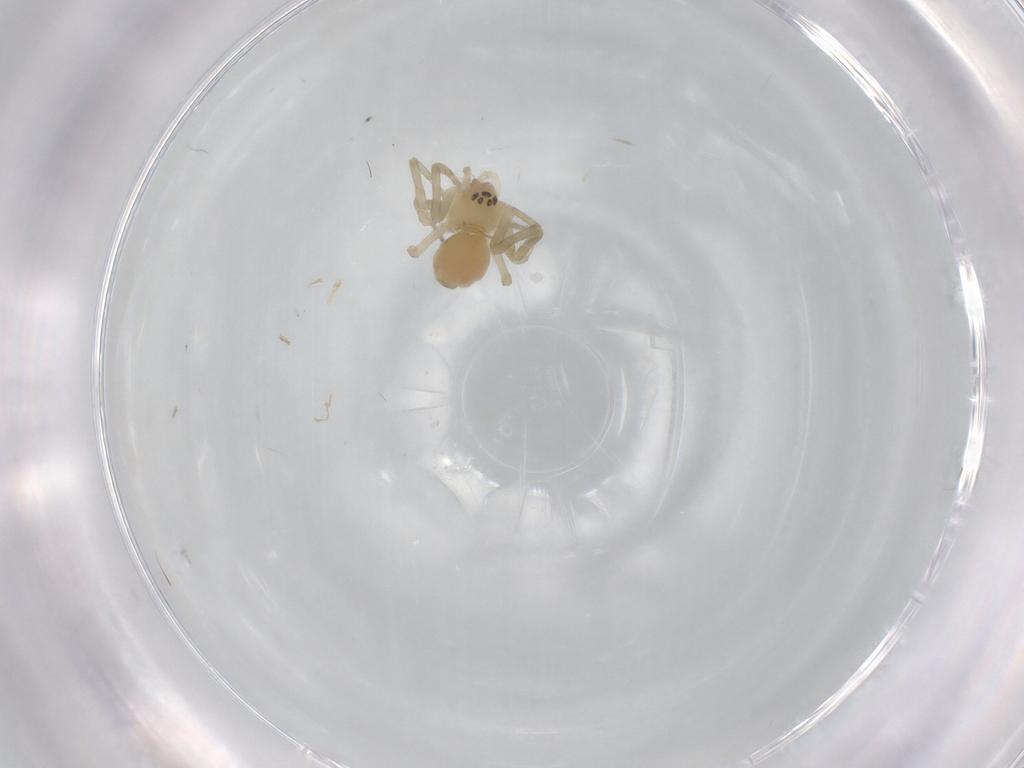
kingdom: Animalia
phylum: Arthropoda
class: Arachnida
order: Araneae
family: Linyphiidae
